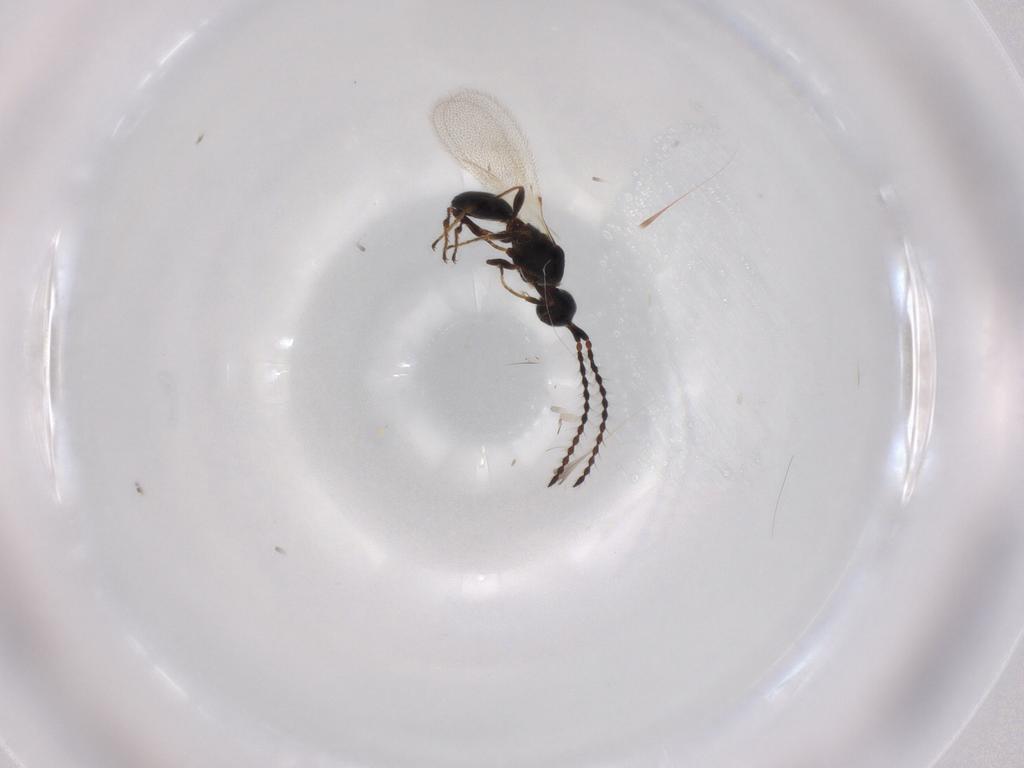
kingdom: Animalia
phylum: Arthropoda
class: Insecta
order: Hymenoptera
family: Diapriidae
